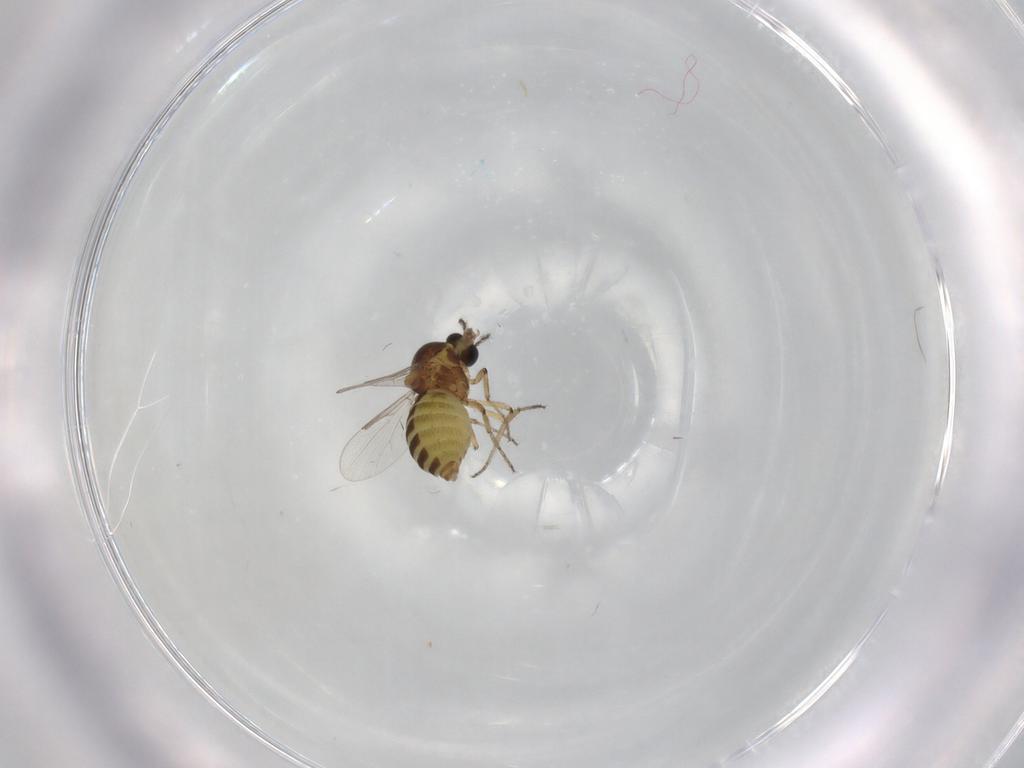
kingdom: Animalia
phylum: Arthropoda
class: Insecta
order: Diptera
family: Ceratopogonidae
